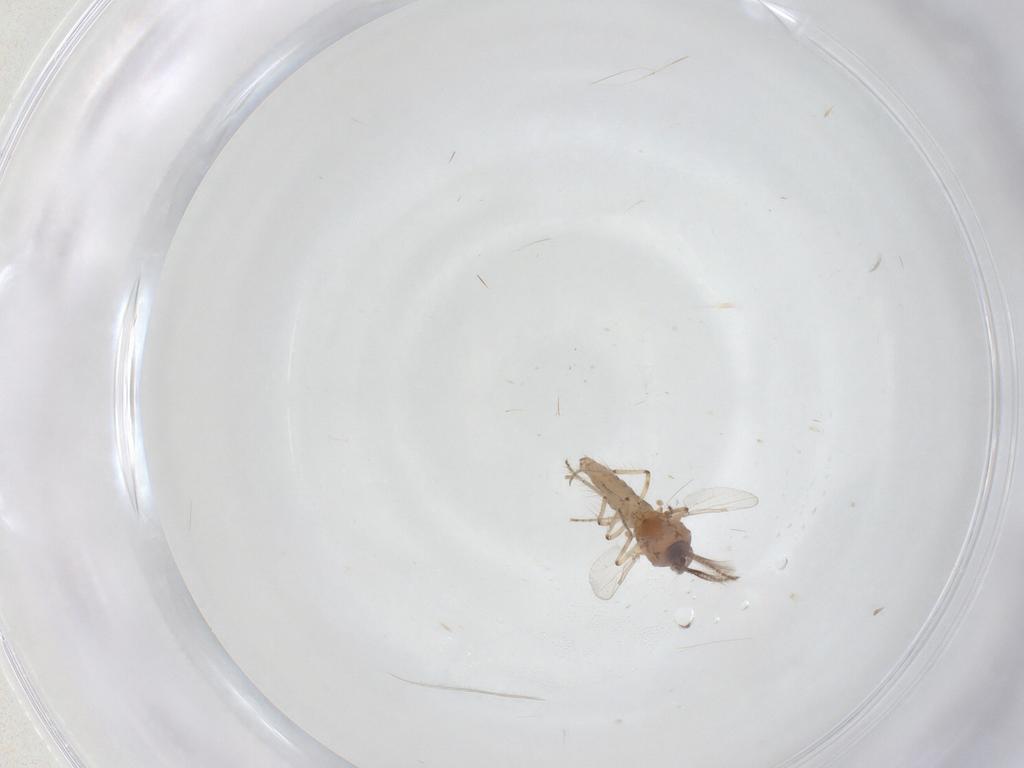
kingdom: Animalia
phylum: Arthropoda
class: Insecta
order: Diptera
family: Ceratopogonidae
